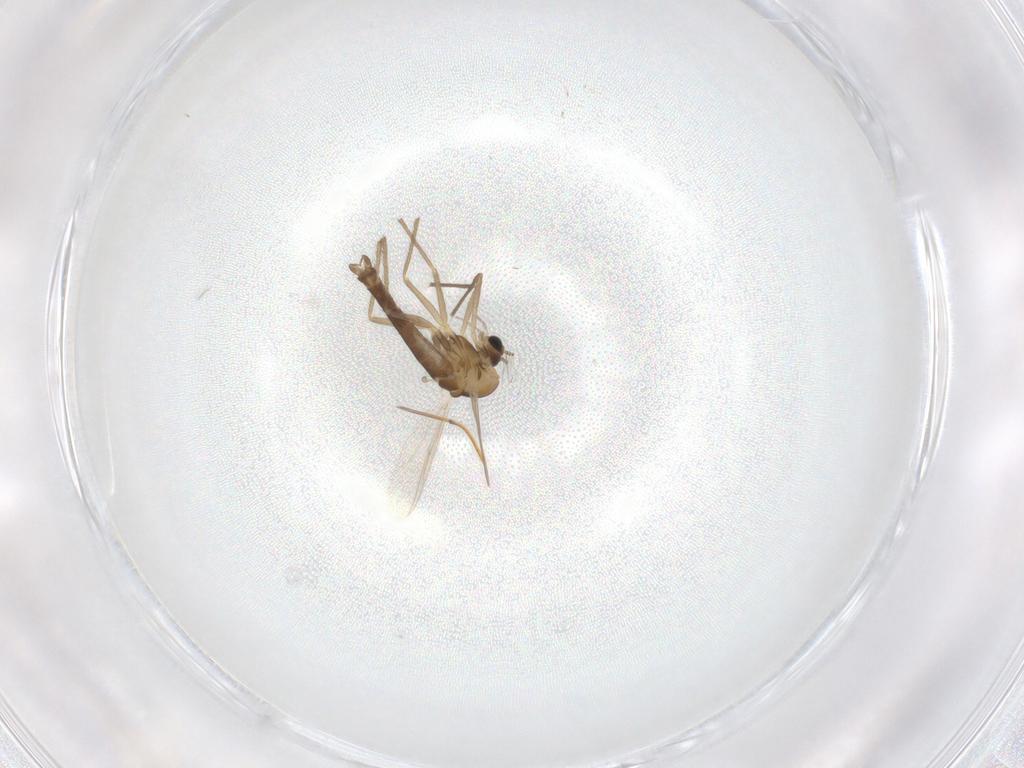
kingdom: Animalia
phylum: Arthropoda
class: Insecta
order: Diptera
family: Chironomidae
